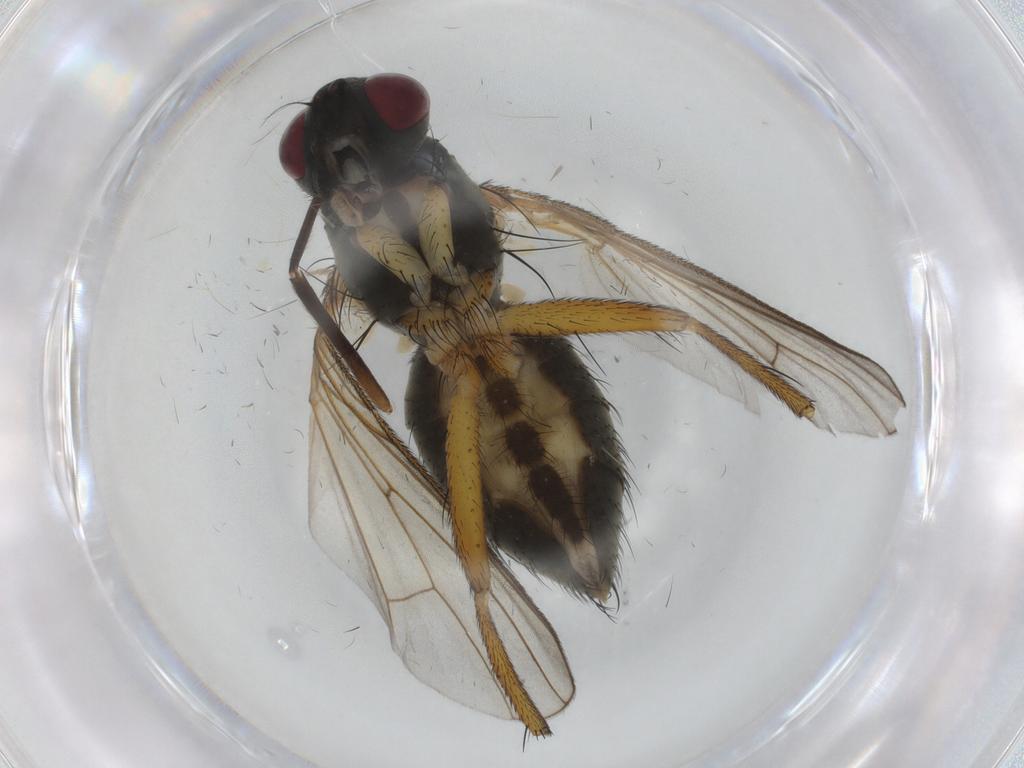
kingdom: Animalia
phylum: Arthropoda
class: Insecta
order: Diptera
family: Muscidae
